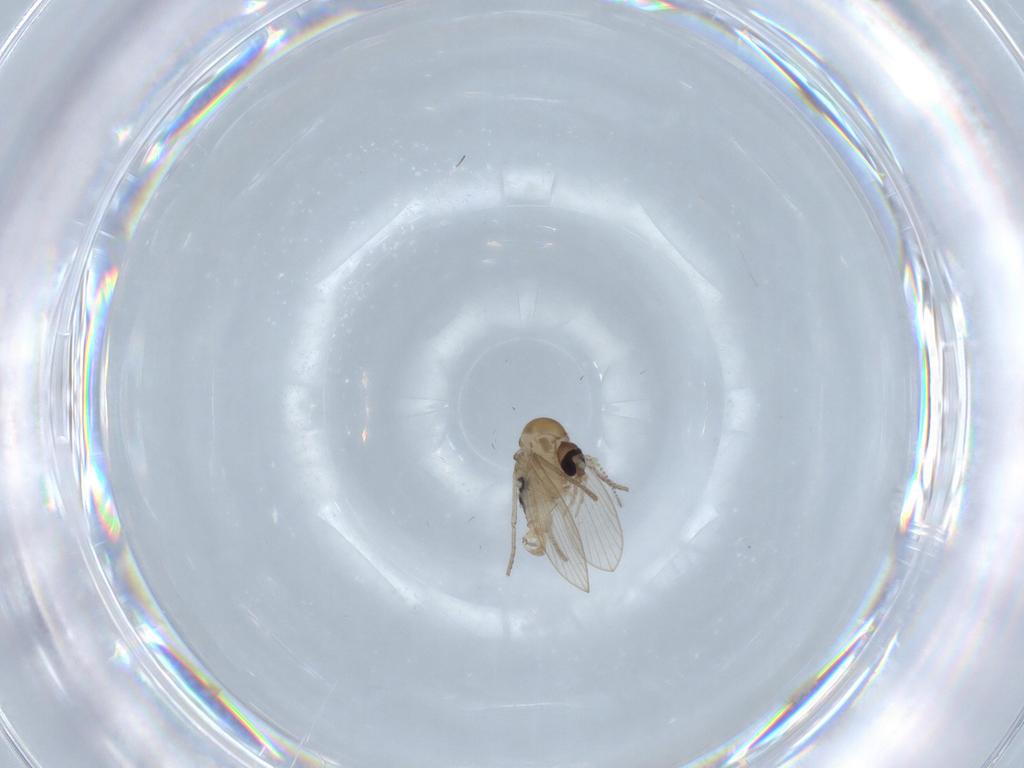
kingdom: Animalia
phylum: Arthropoda
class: Insecta
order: Diptera
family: Psychodidae
